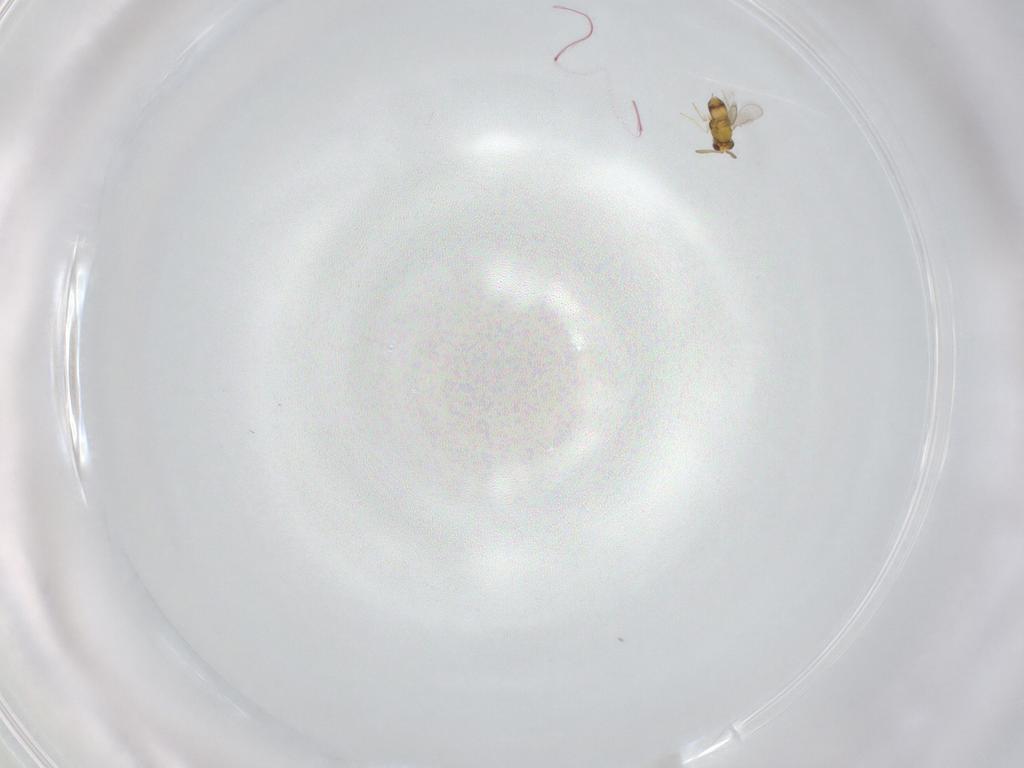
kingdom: Animalia
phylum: Arthropoda
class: Insecta
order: Hymenoptera
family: Aphelinidae
